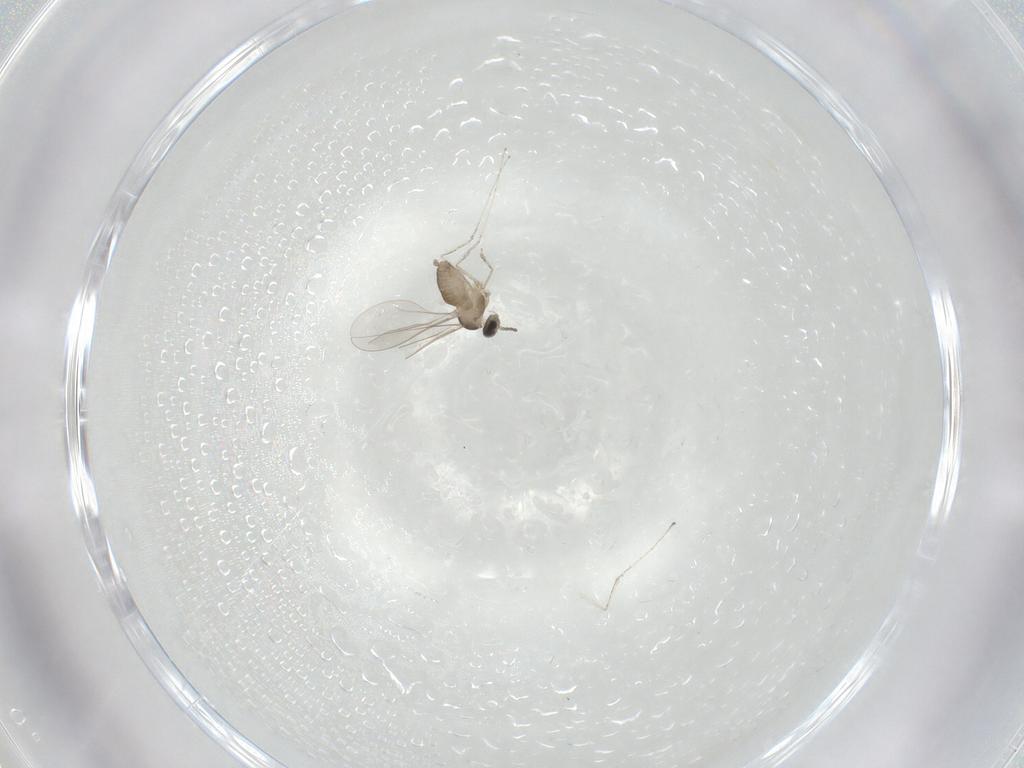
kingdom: Animalia
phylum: Arthropoda
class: Insecta
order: Diptera
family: Cecidomyiidae
